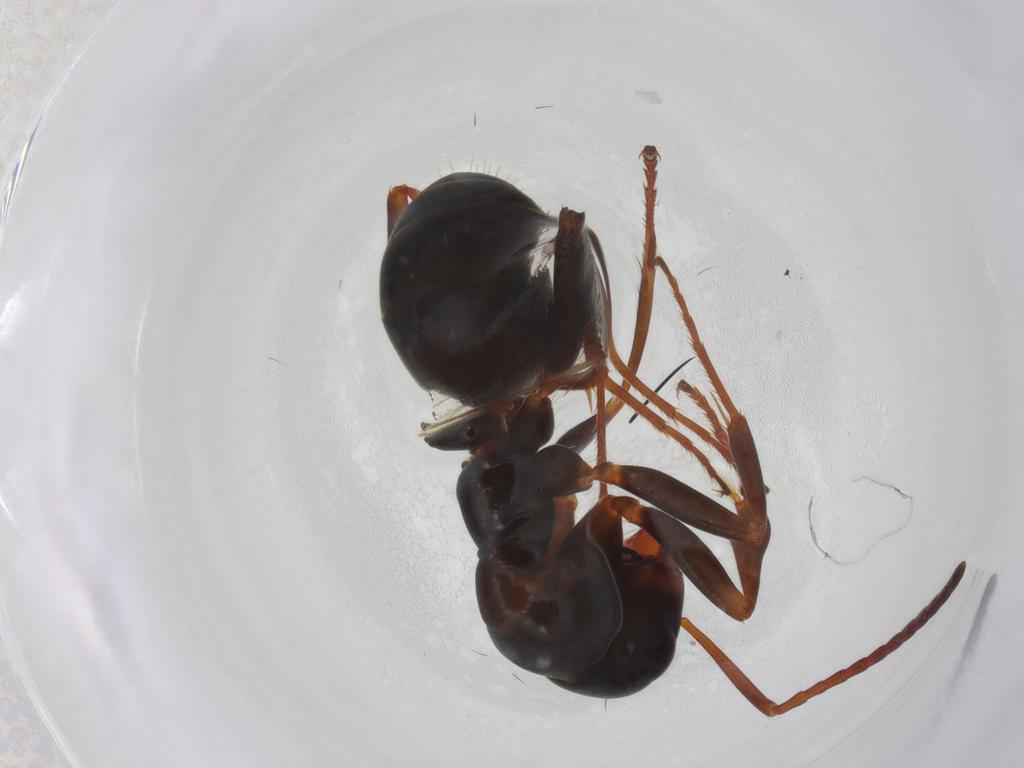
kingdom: Animalia
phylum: Arthropoda
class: Insecta
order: Hymenoptera
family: Formicidae
